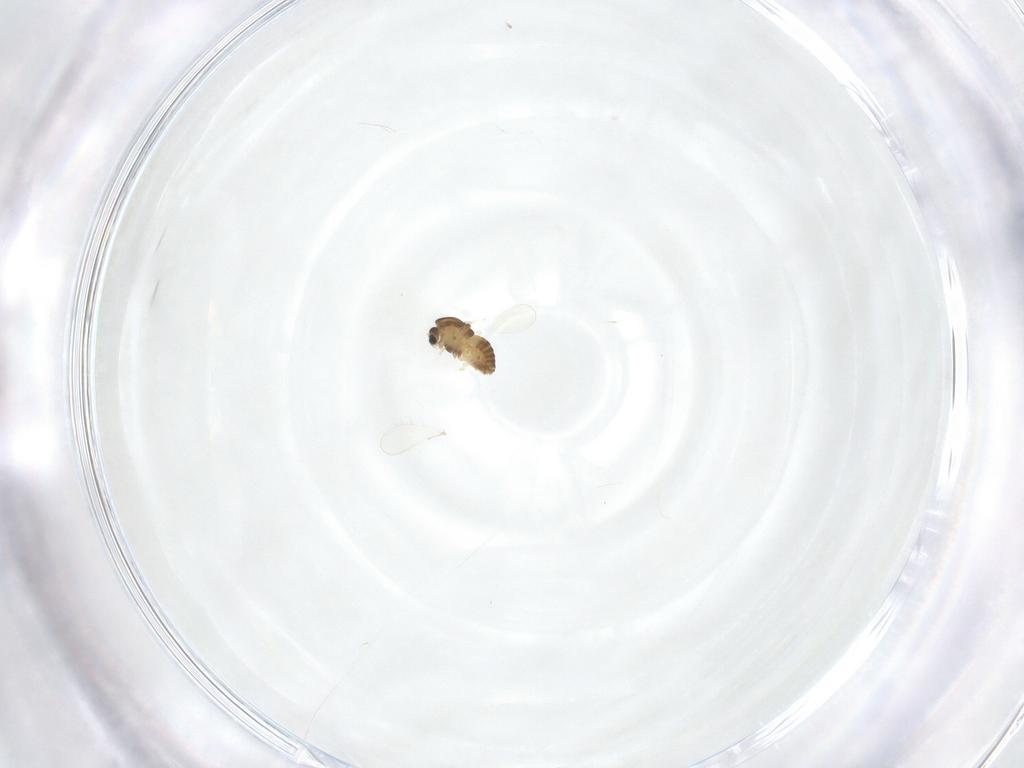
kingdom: Animalia
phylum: Arthropoda
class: Insecta
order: Diptera
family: Chironomidae
